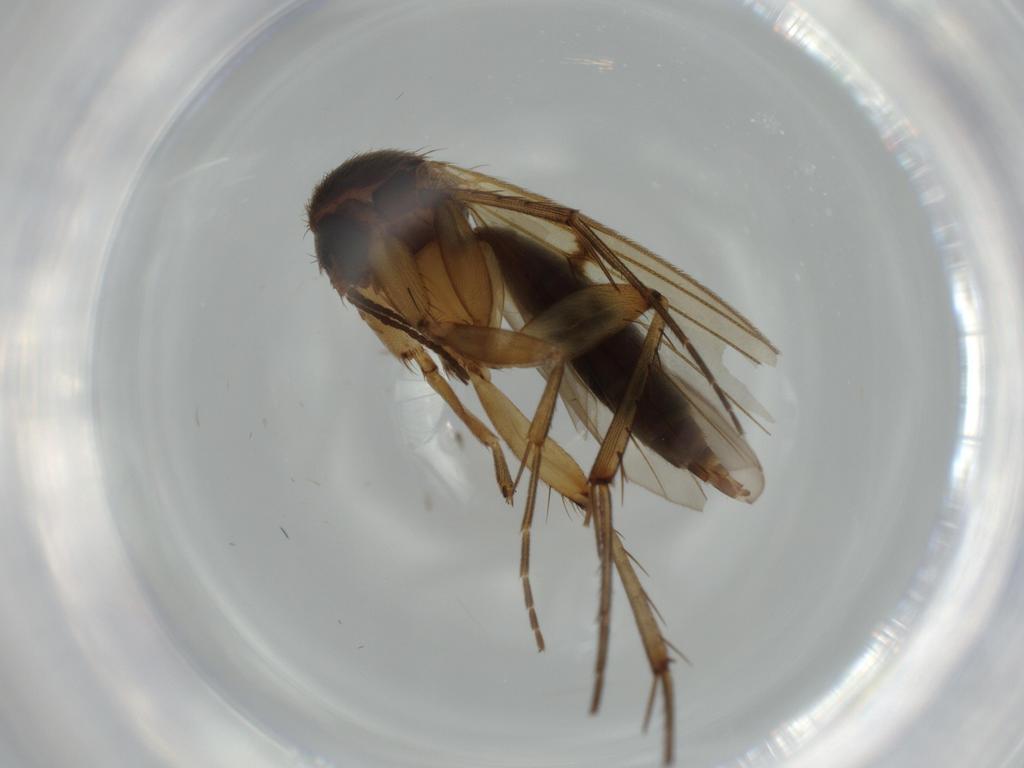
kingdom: Animalia
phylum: Arthropoda
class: Insecta
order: Diptera
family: Mycetophilidae
